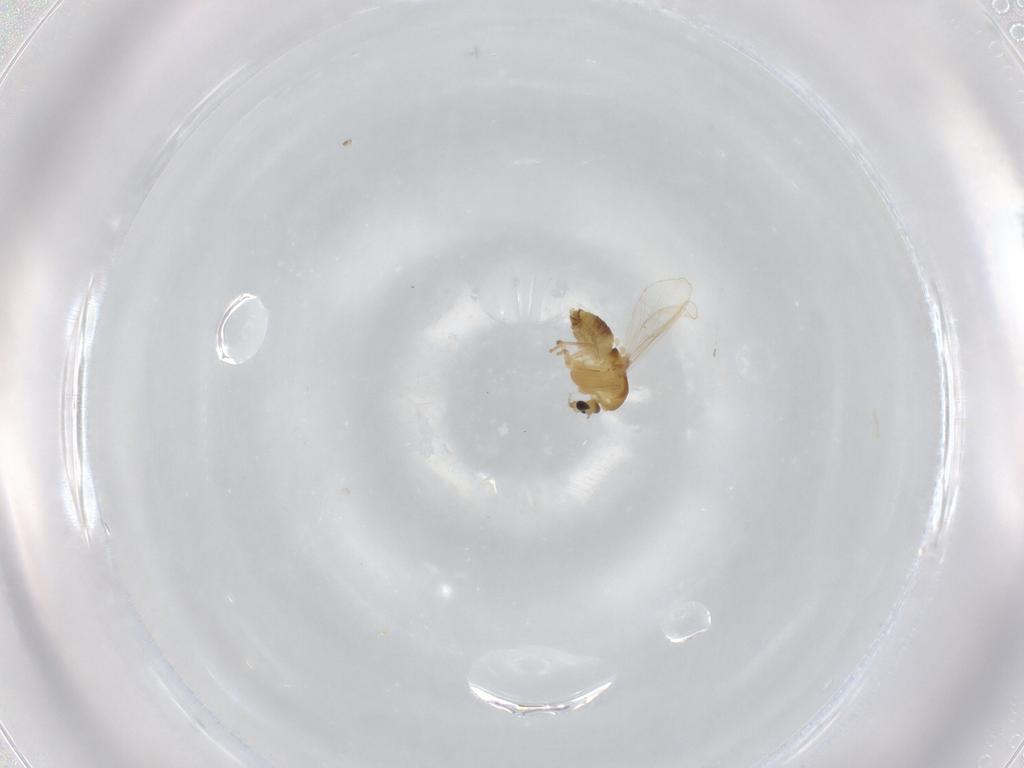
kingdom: Animalia
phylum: Arthropoda
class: Insecta
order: Diptera
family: Chironomidae
